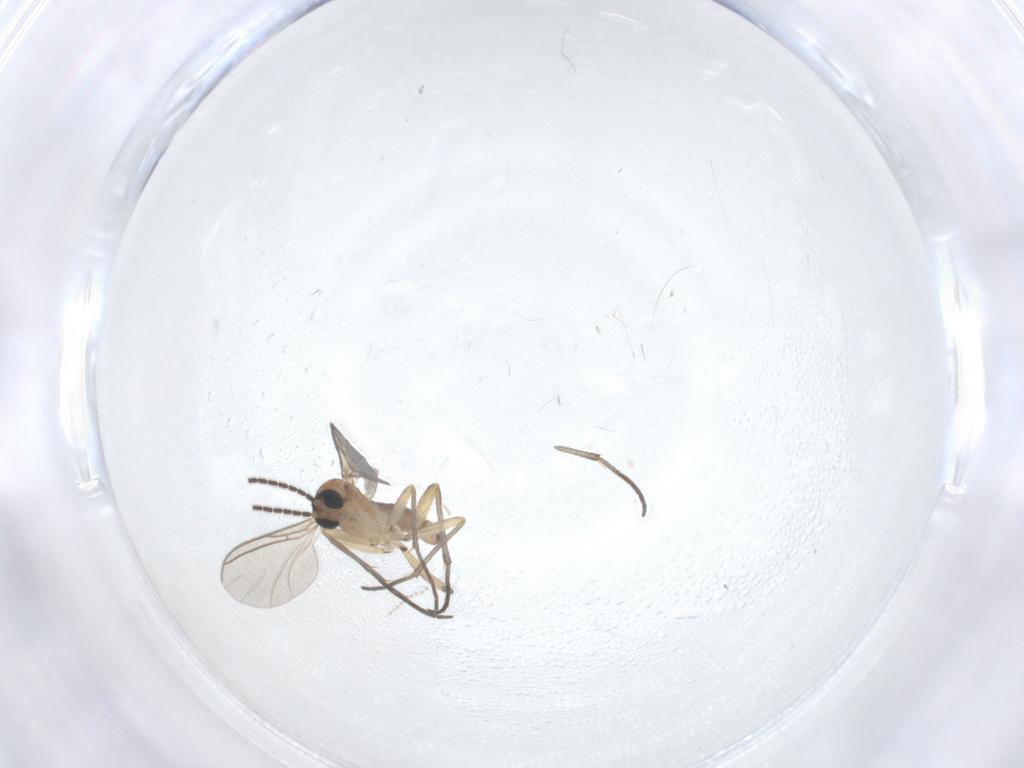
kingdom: Animalia
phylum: Arthropoda
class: Insecta
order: Diptera
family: Sciaridae
